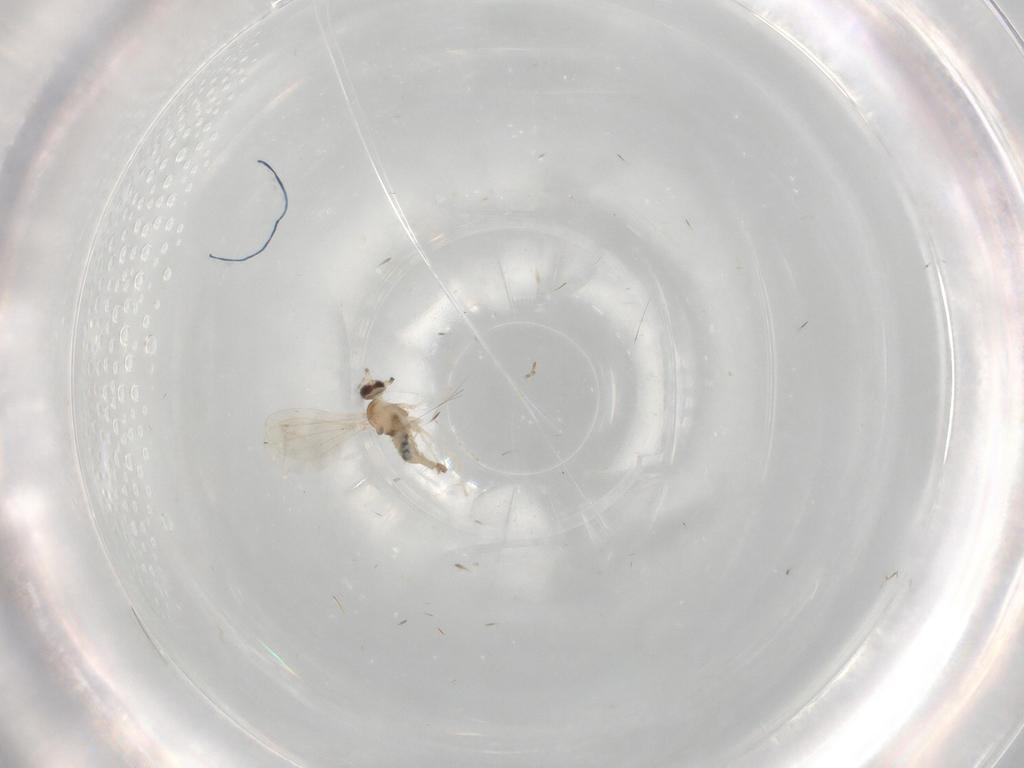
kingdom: Animalia
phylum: Arthropoda
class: Insecta
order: Diptera
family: Cecidomyiidae
